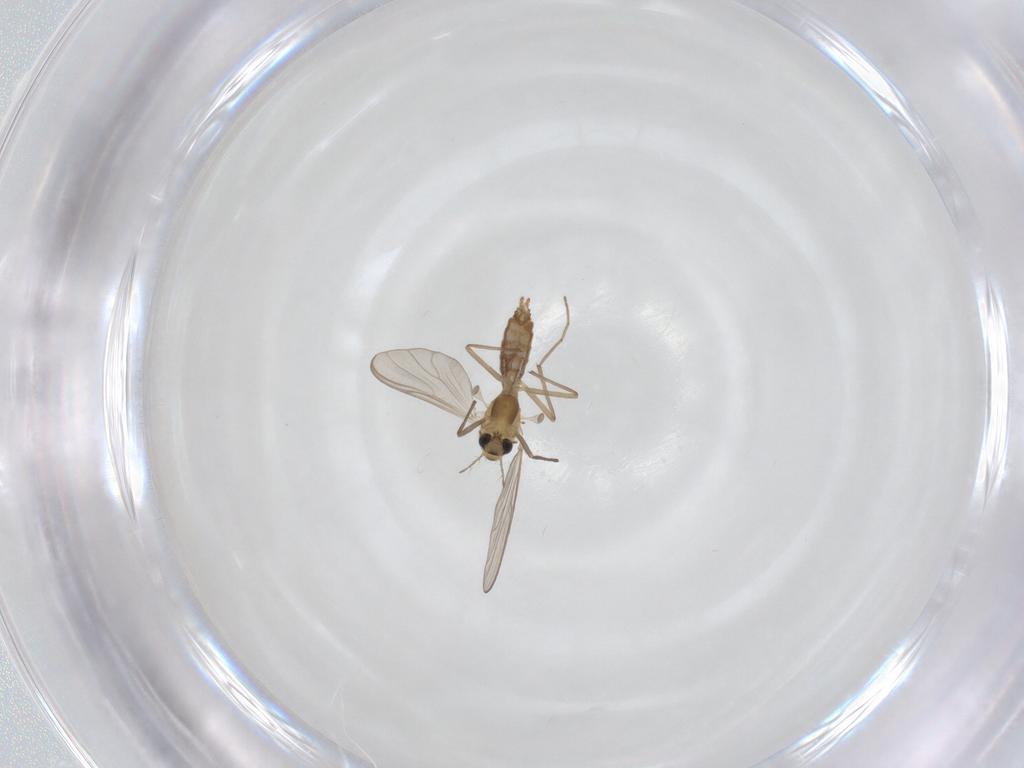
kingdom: Animalia
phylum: Arthropoda
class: Insecta
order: Diptera
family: Chironomidae
